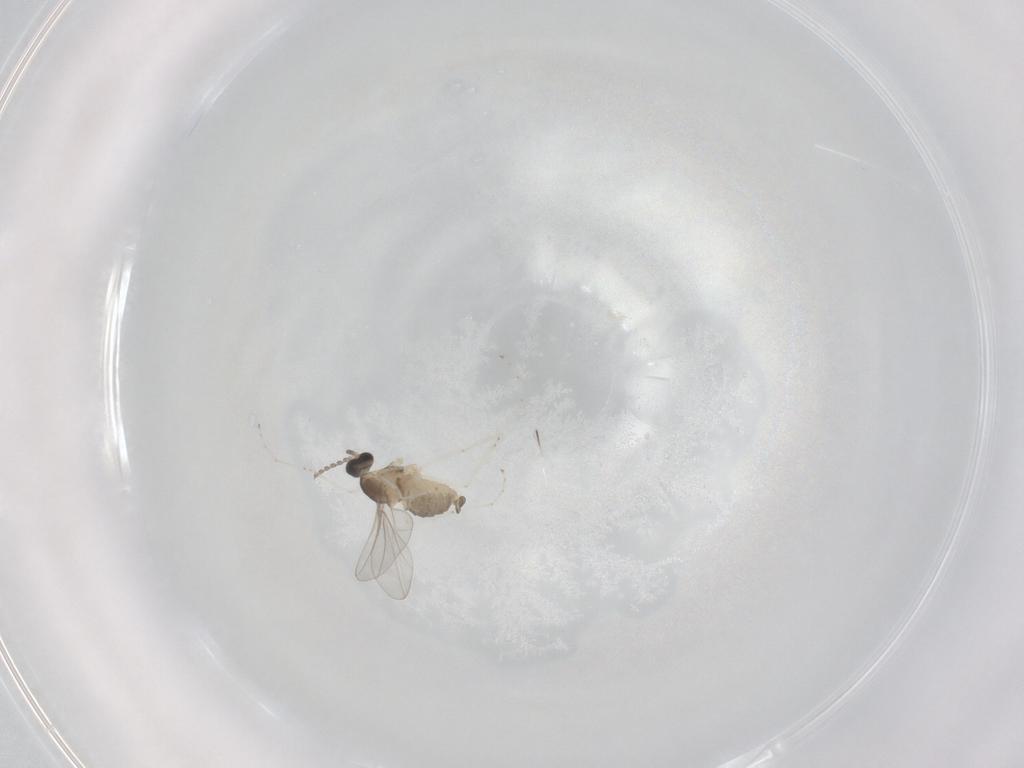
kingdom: Animalia
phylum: Arthropoda
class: Insecta
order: Diptera
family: Cecidomyiidae
